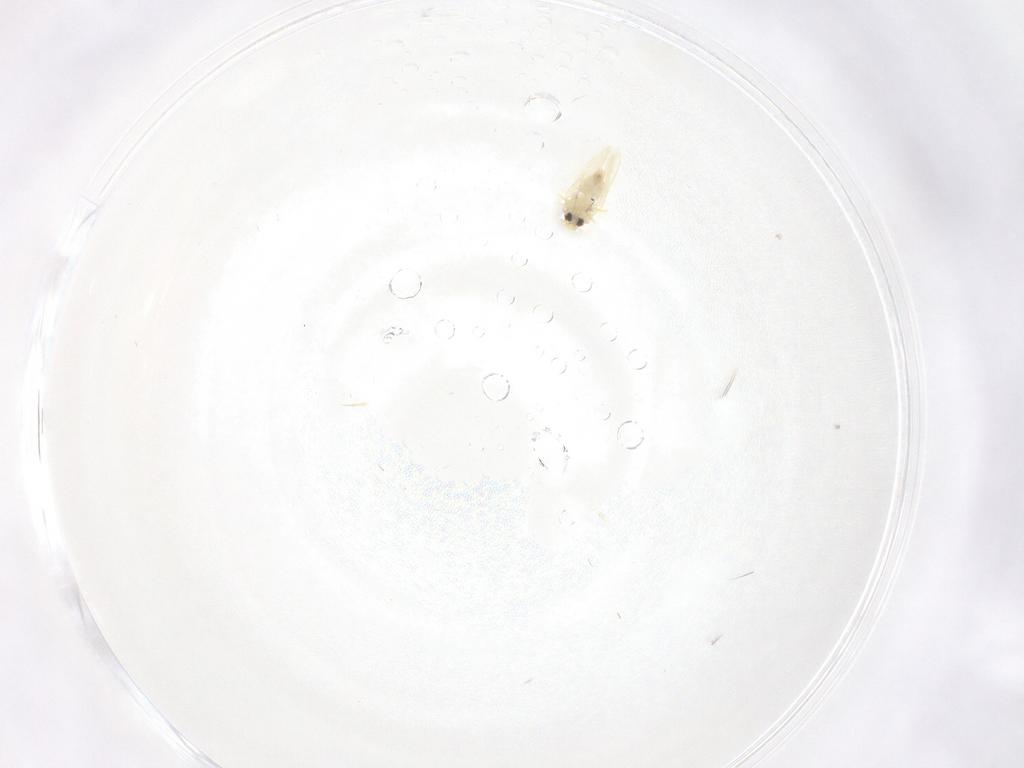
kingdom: Animalia
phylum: Arthropoda
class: Insecta
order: Hemiptera
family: Aleyrodidae
